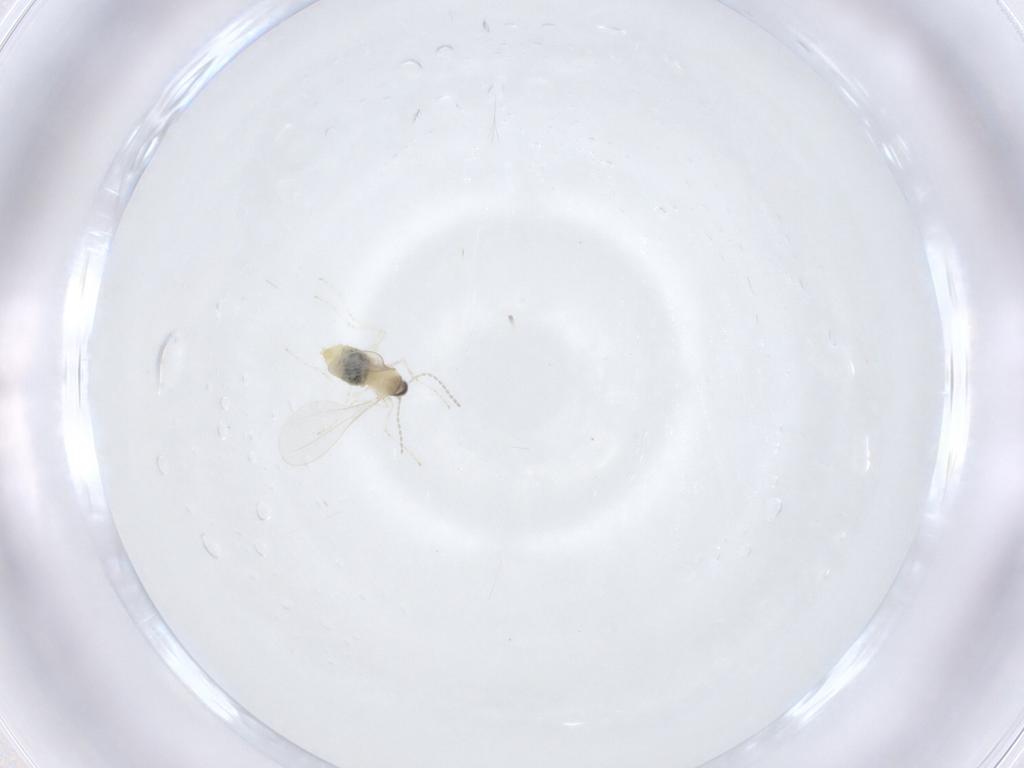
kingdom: Animalia
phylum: Arthropoda
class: Insecta
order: Diptera
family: Cecidomyiidae
